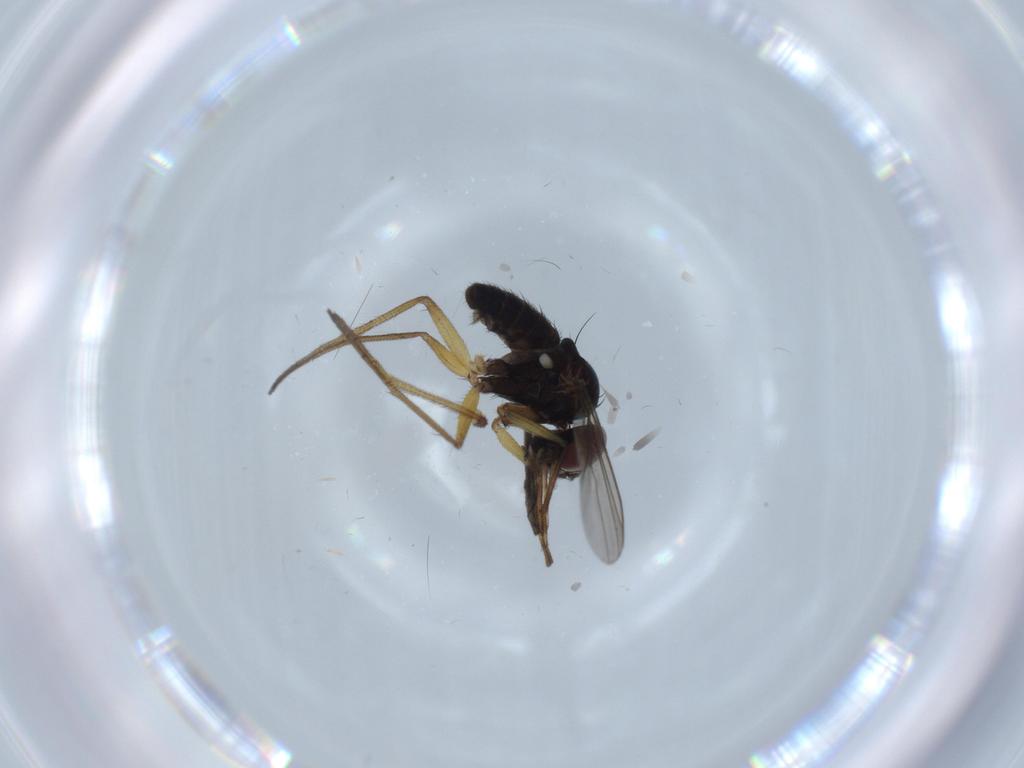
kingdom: Animalia
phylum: Arthropoda
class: Insecta
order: Diptera
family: Dolichopodidae
